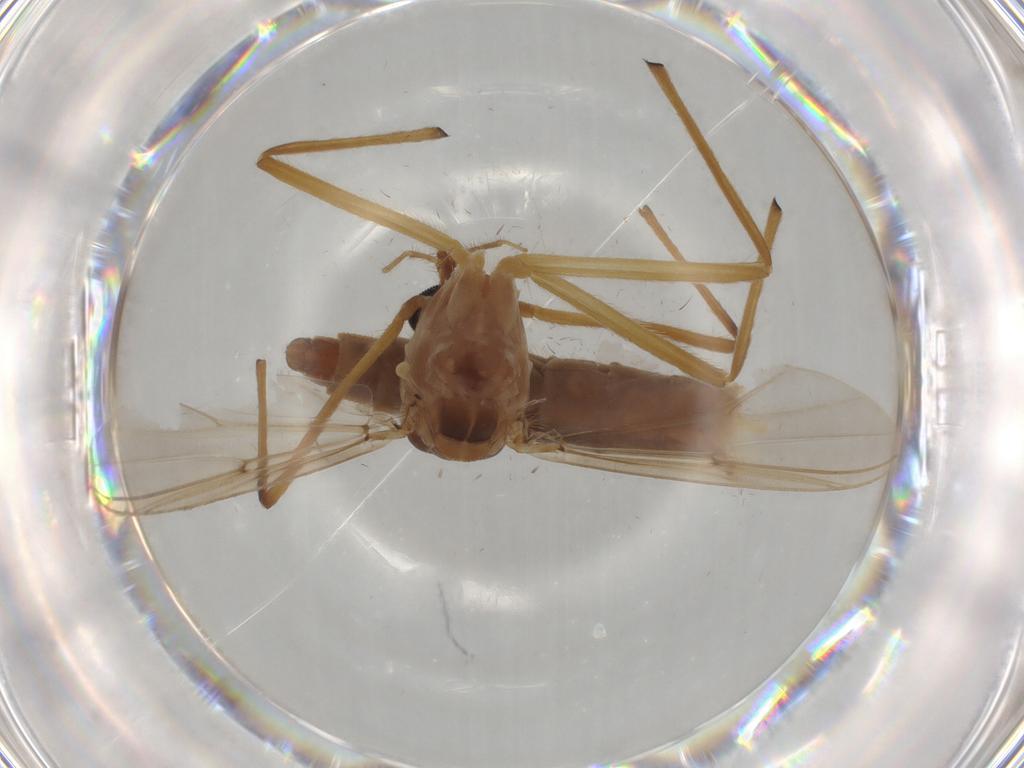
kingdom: Animalia
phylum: Arthropoda
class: Insecta
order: Diptera
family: Chironomidae
